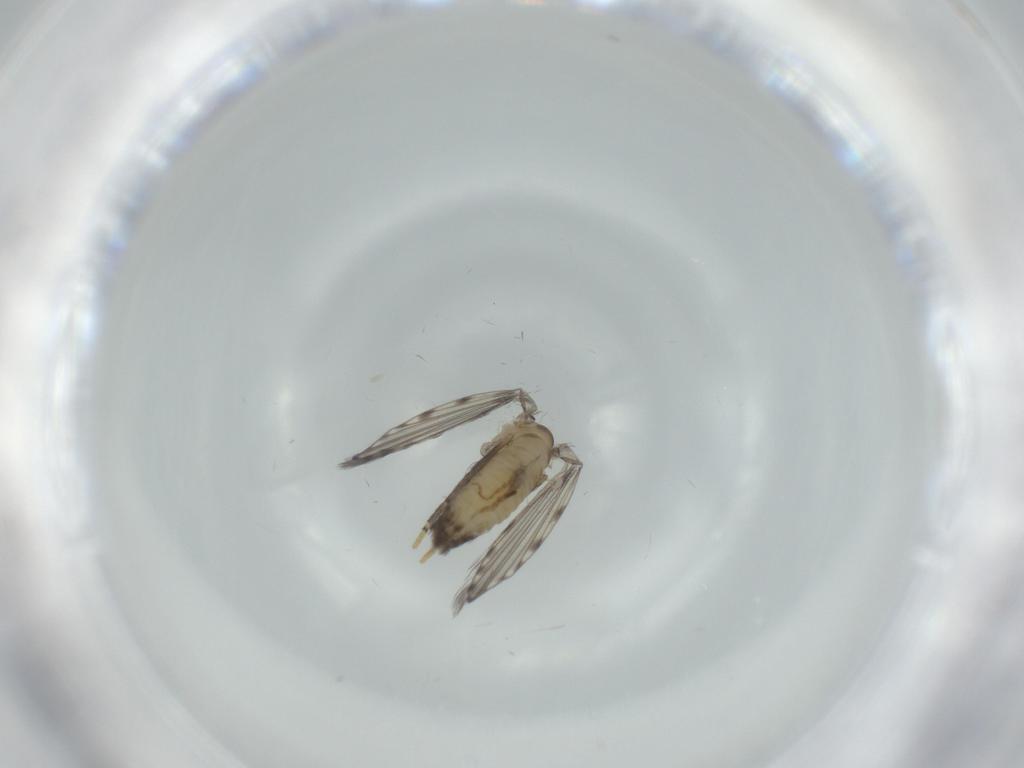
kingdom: Animalia
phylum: Arthropoda
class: Insecta
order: Diptera
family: Psychodidae
